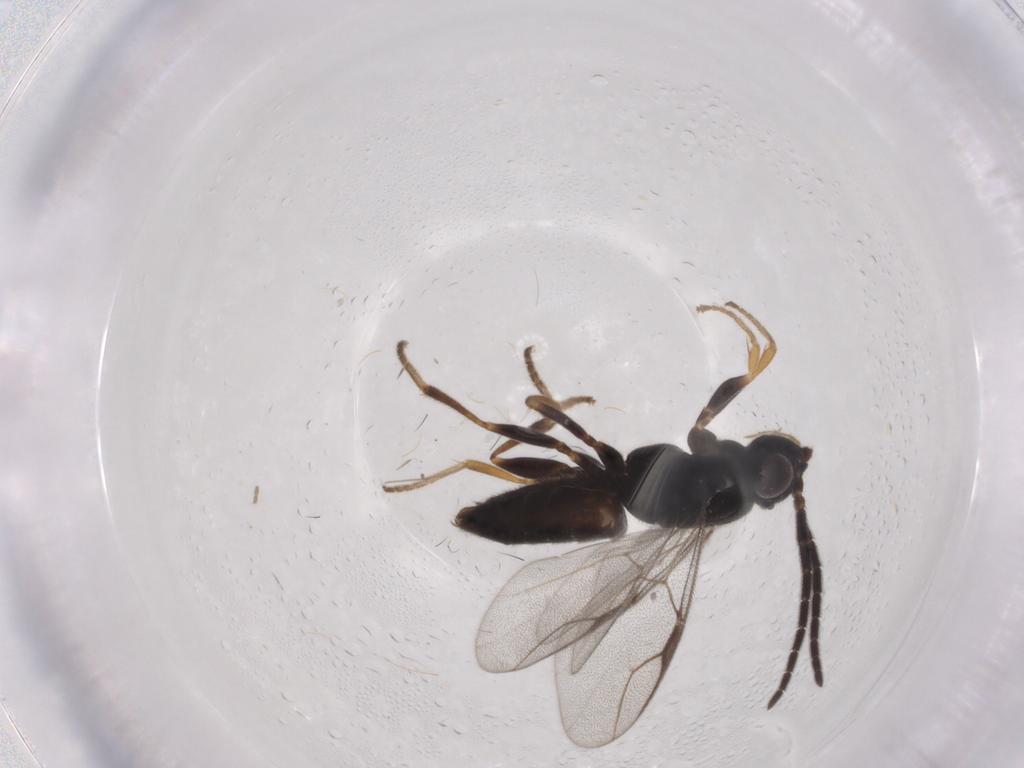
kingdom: Animalia
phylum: Arthropoda
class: Insecta
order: Hymenoptera
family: Dryinidae
